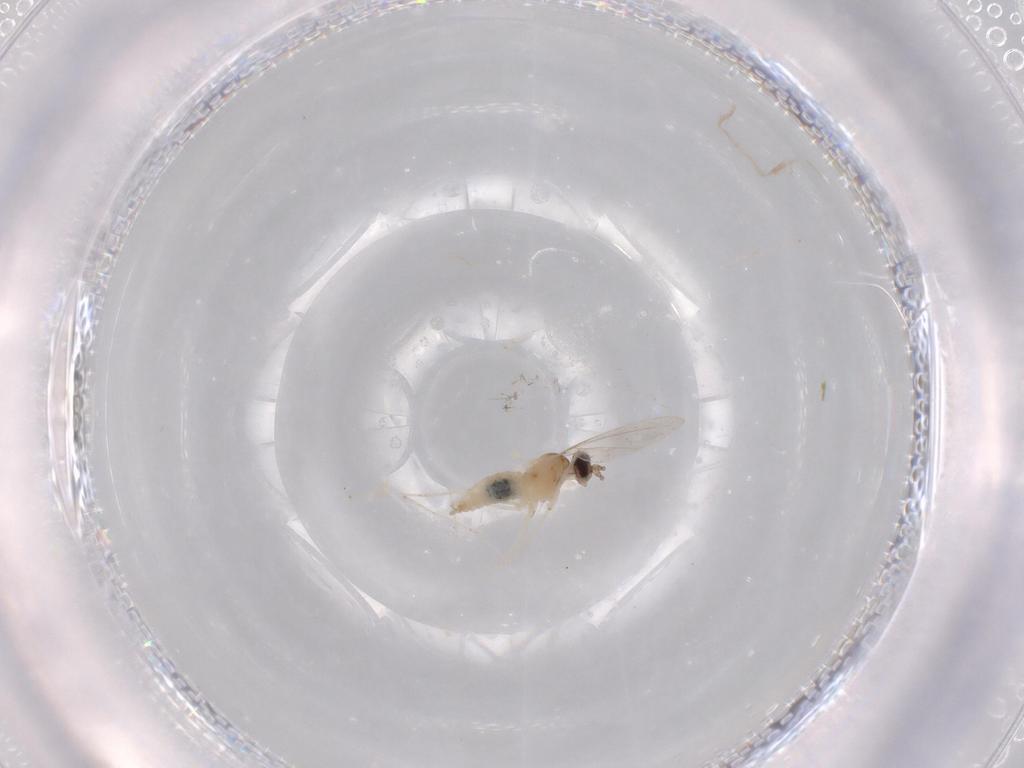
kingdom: Animalia
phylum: Arthropoda
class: Insecta
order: Diptera
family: Cecidomyiidae
